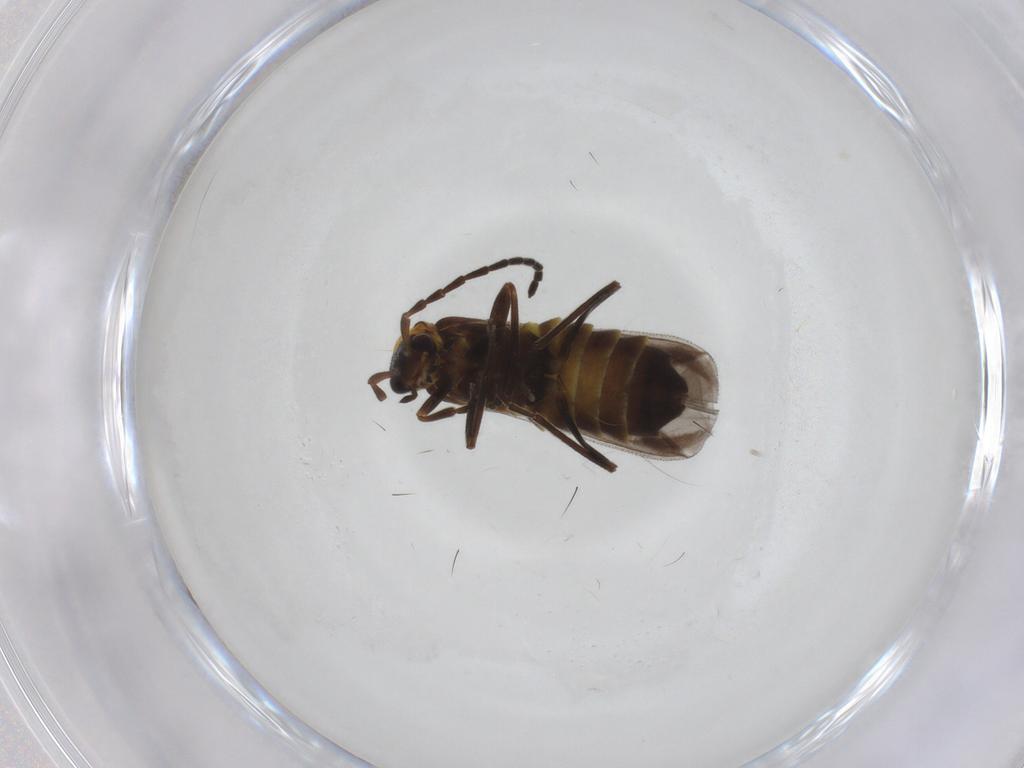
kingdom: Animalia
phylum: Arthropoda
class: Insecta
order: Coleoptera
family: Cantharidae
